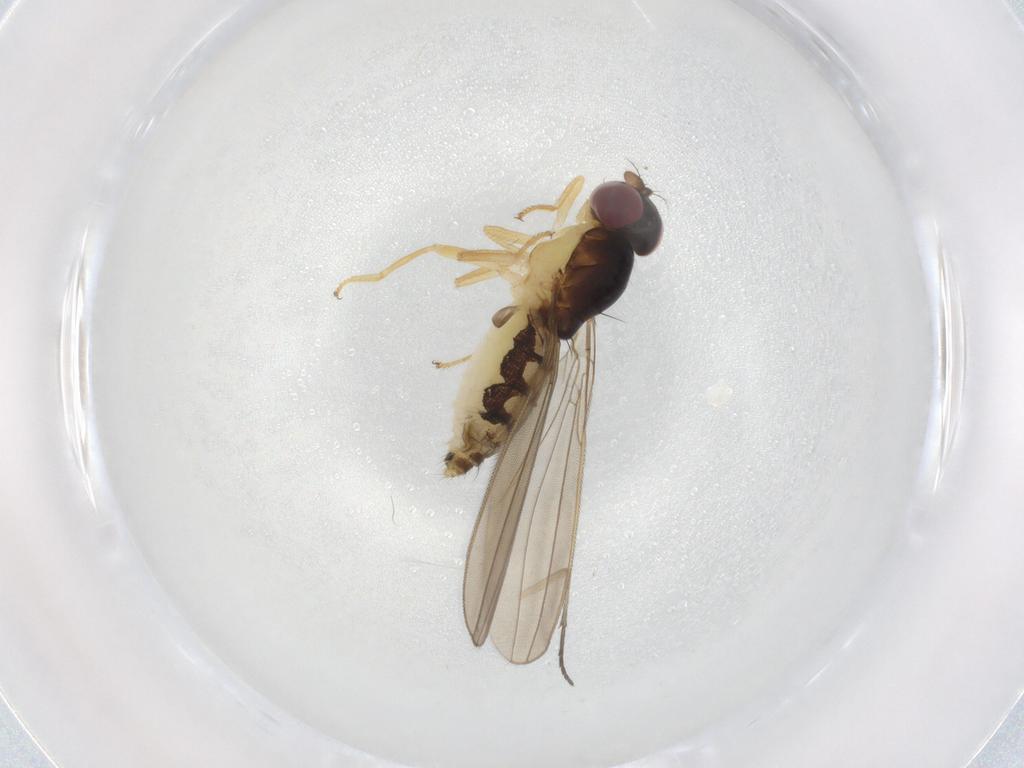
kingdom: Animalia
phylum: Arthropoda
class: Insecta
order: Diptera
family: Asteiidae
